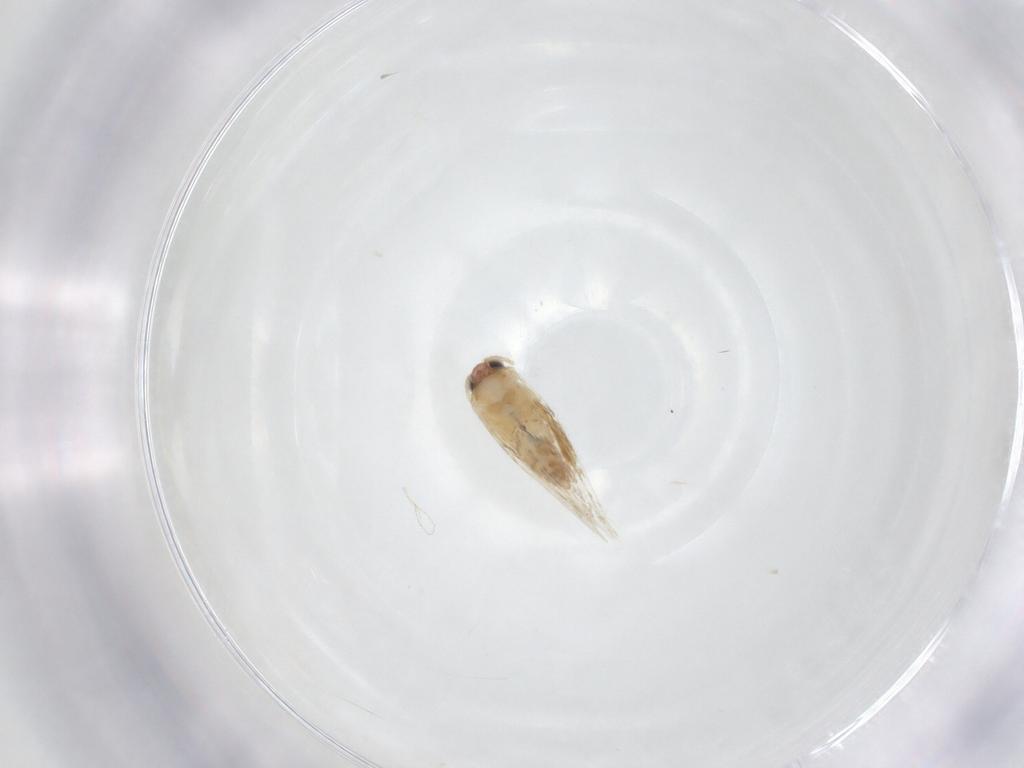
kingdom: Animalia
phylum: Arthropoda
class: Insecta
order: Lepidoptera
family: Nepticulidae
